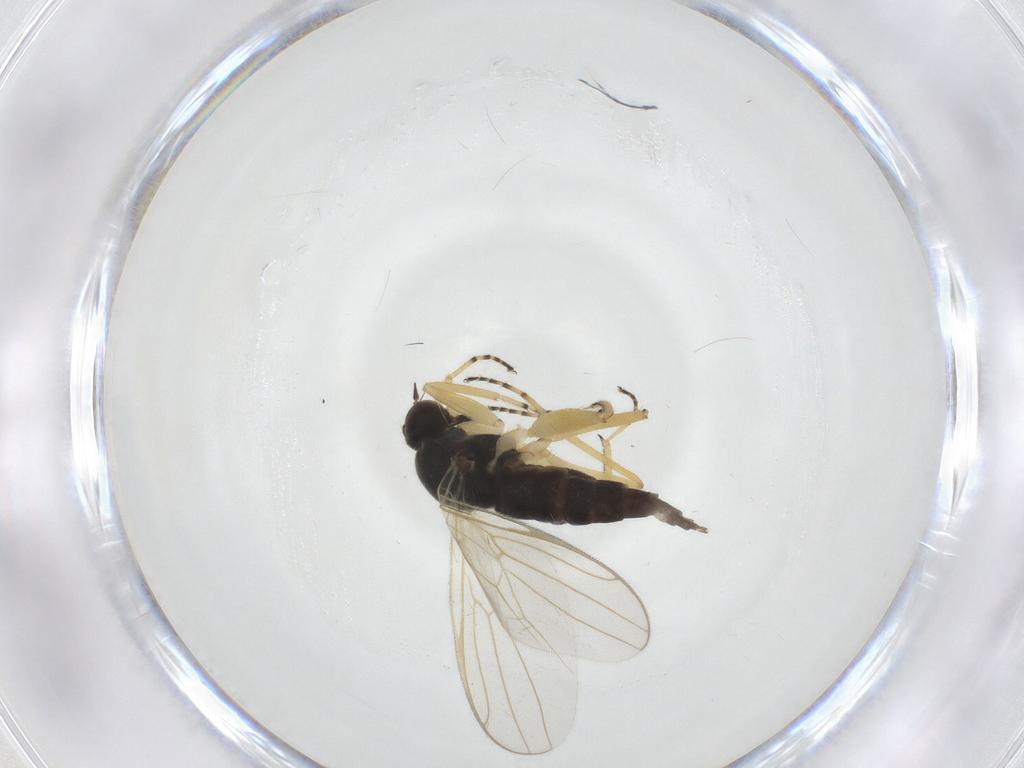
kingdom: Animalia
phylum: Arthropoda
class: Insecta
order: Diptera
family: Hybotidae
